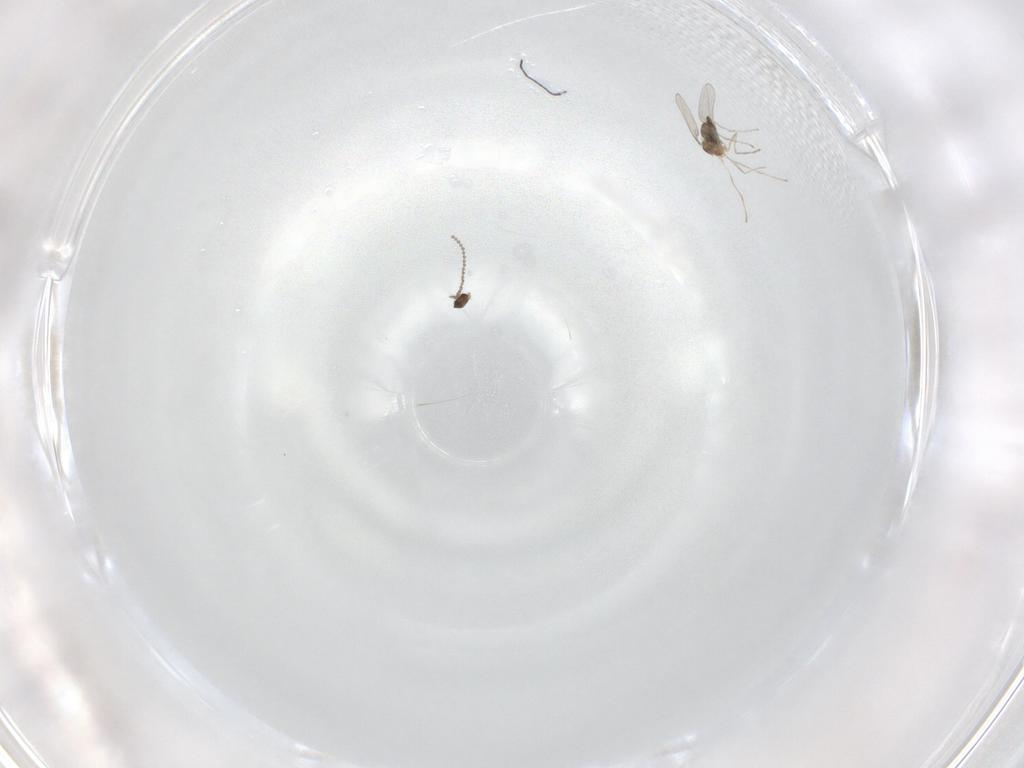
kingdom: Animalia
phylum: Arthropoda
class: Insecta
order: Diptera
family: Cecidomyiidae
